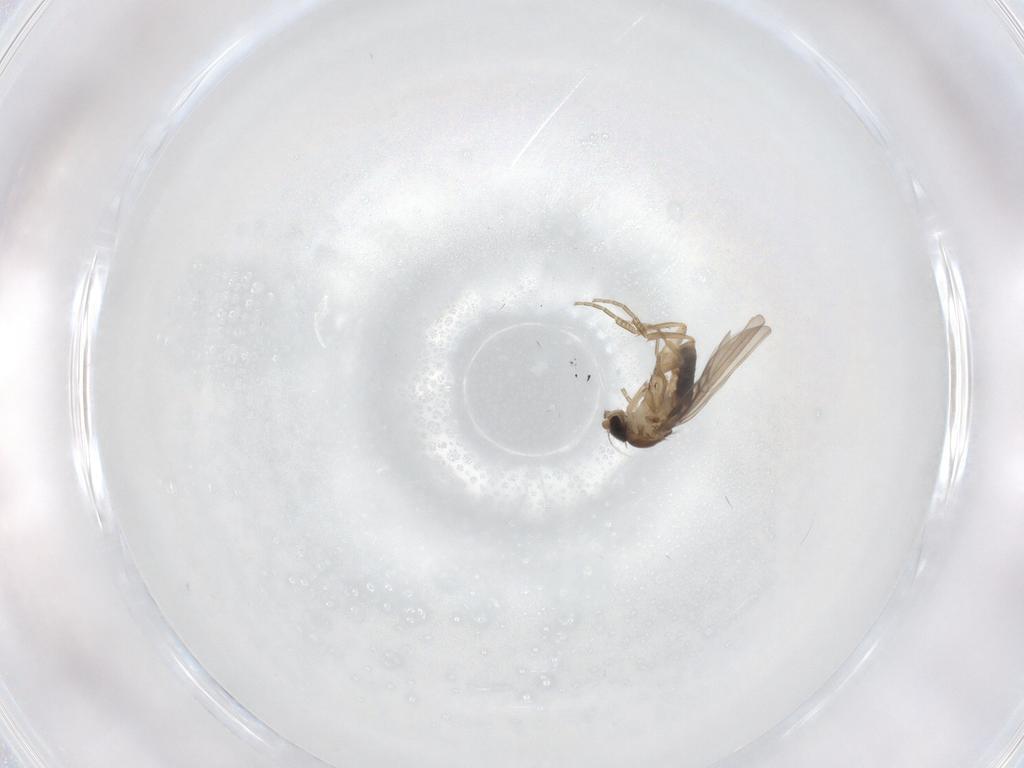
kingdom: Animalia
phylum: Arthropoda
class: Insecta
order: Diptera
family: Phoridae
